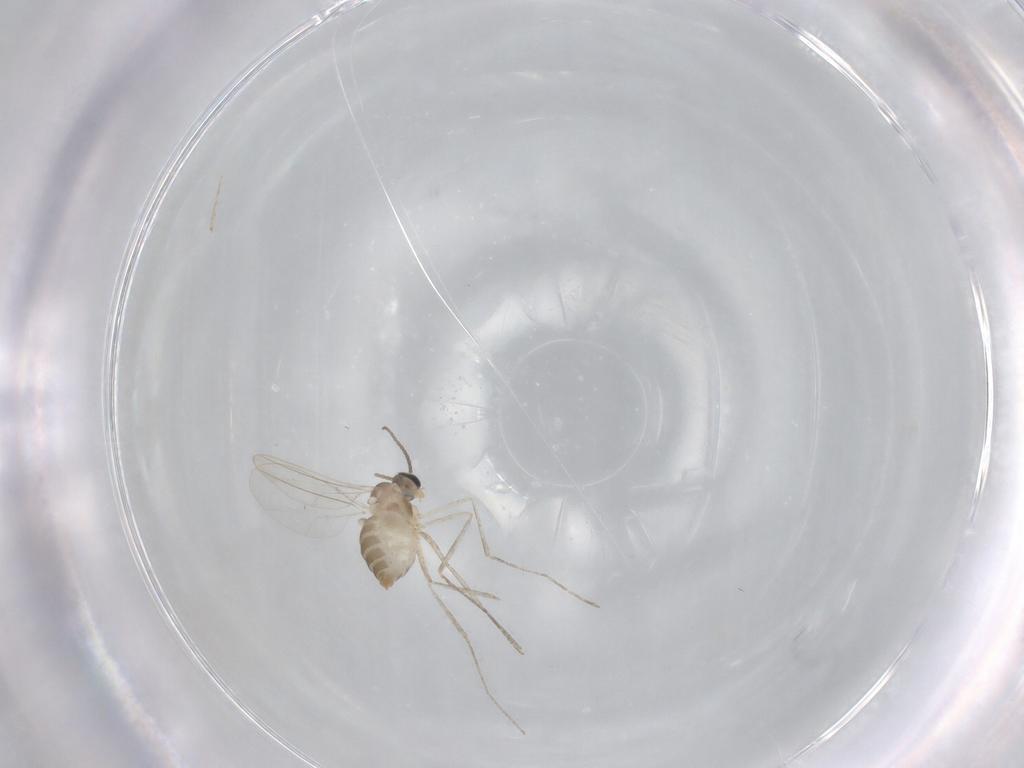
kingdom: Animalia
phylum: Arthropoda
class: Insecta
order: Diptera
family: Cecidomyiidae
